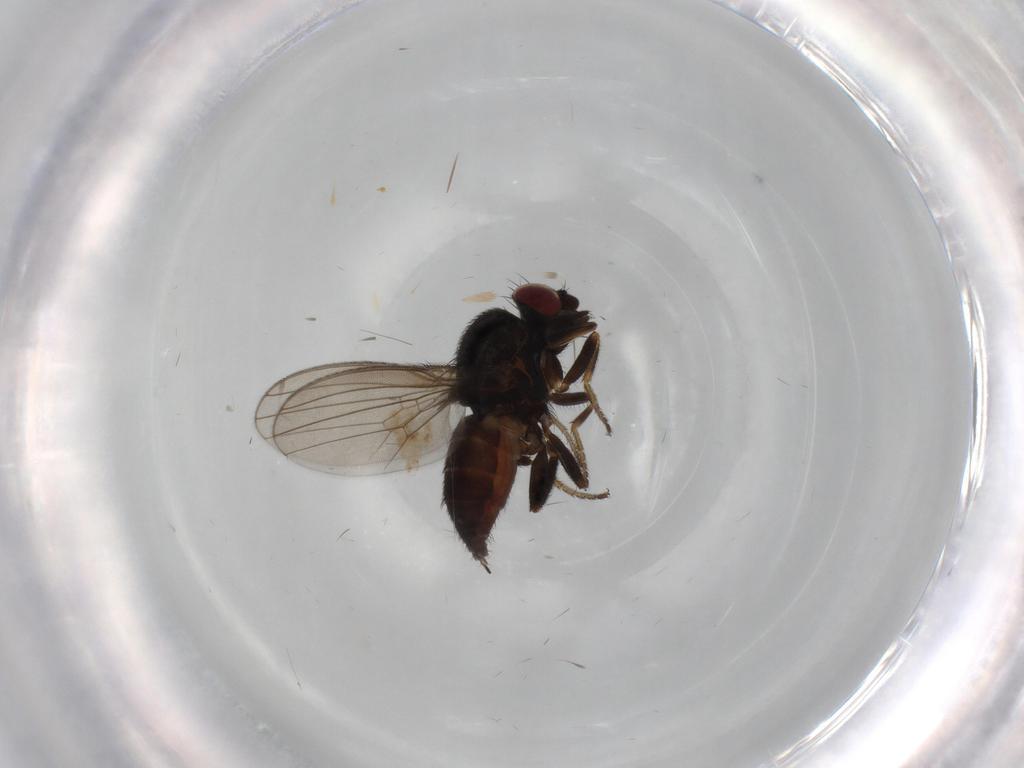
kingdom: Animalia
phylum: Arthropoda
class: Insecta
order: Diptera
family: Milichiidae
